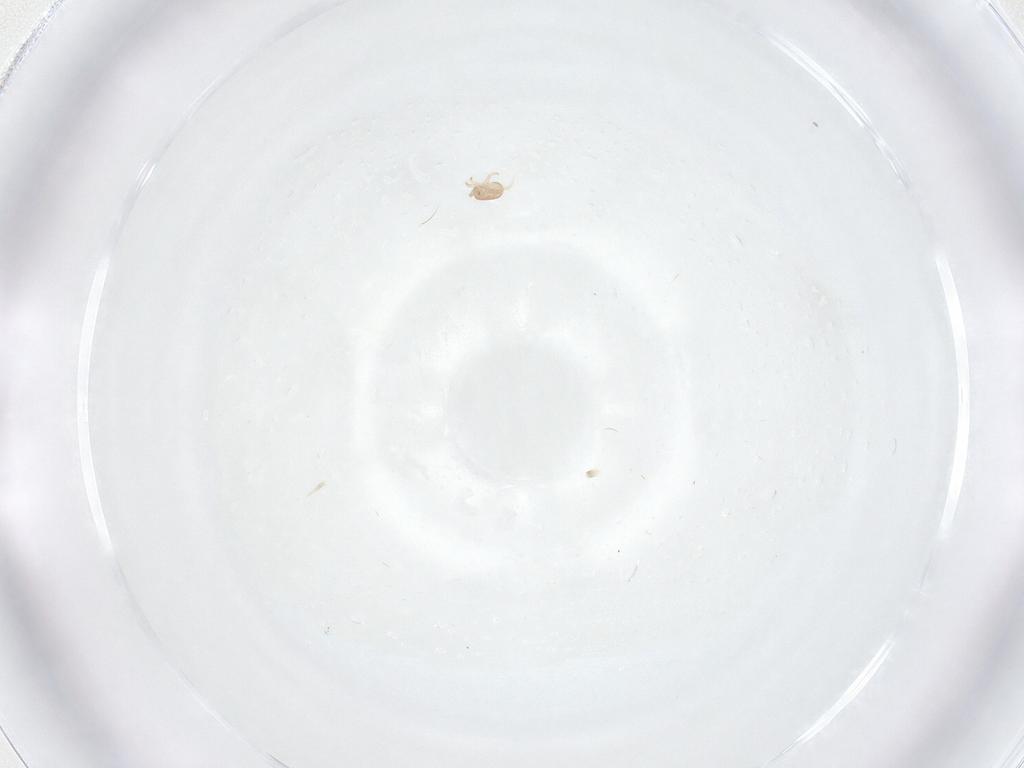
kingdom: Animalia
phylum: Arthropoda
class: Arachnida
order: Mesostigmata
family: Ascidae
